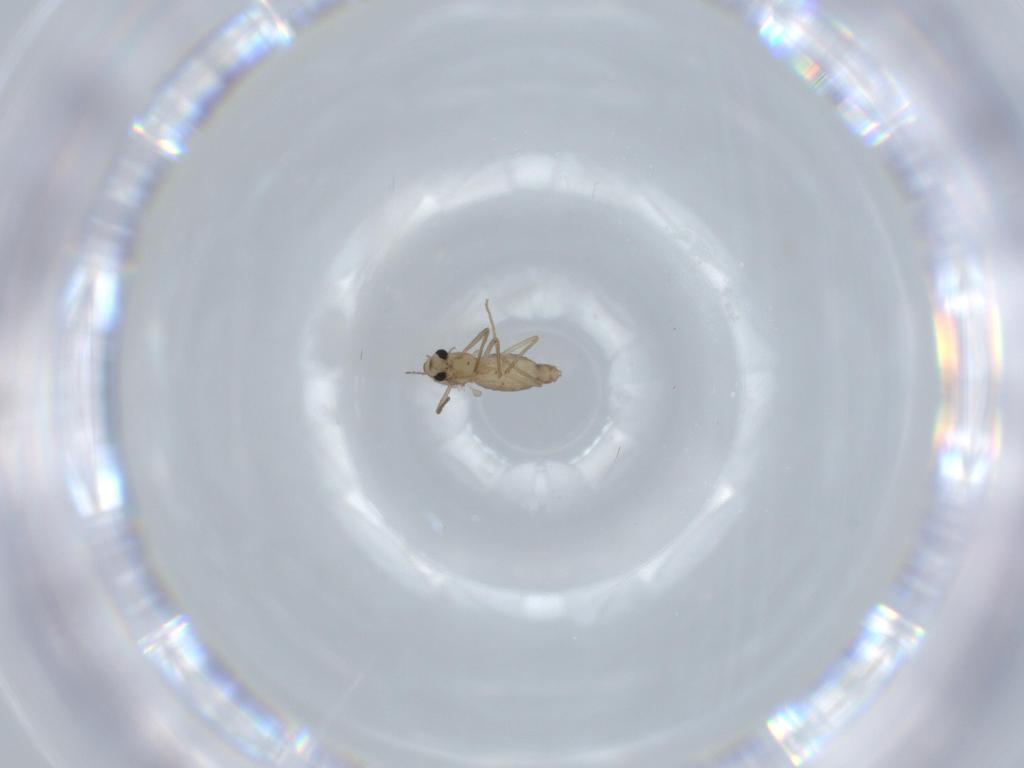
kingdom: Animalia
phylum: Arthropoda
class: Insecta
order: Diptera
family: Chironomidae
